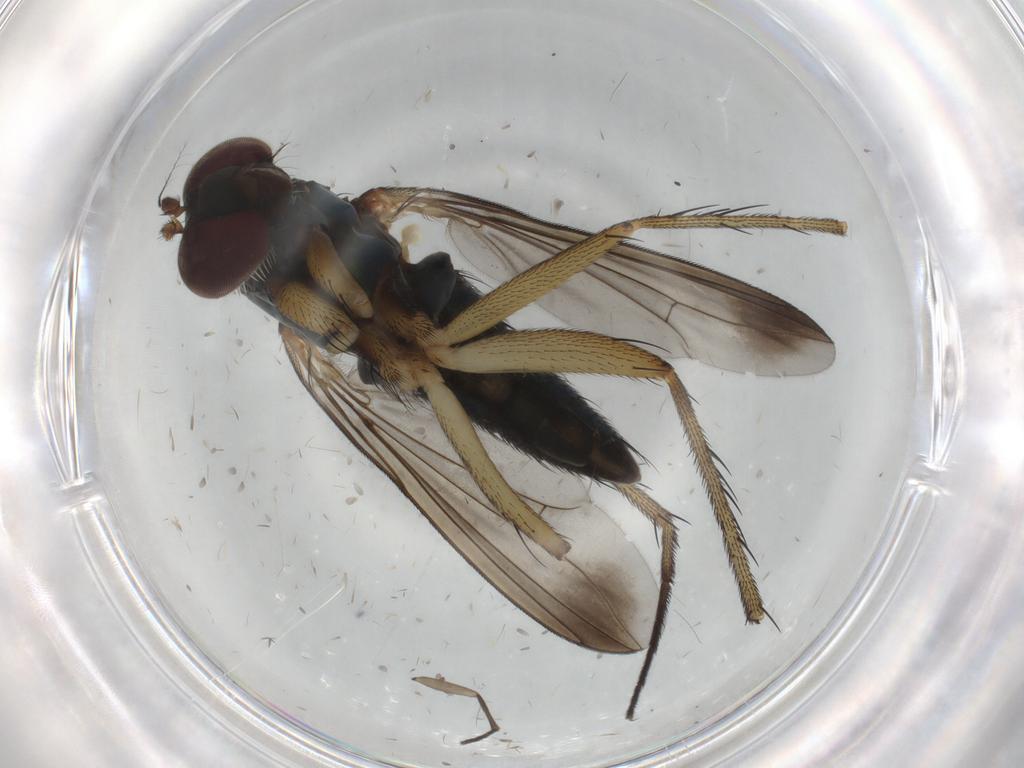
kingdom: Animalia
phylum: Arthropoda
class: Insecta
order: Diptera
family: Dolichopodidae
